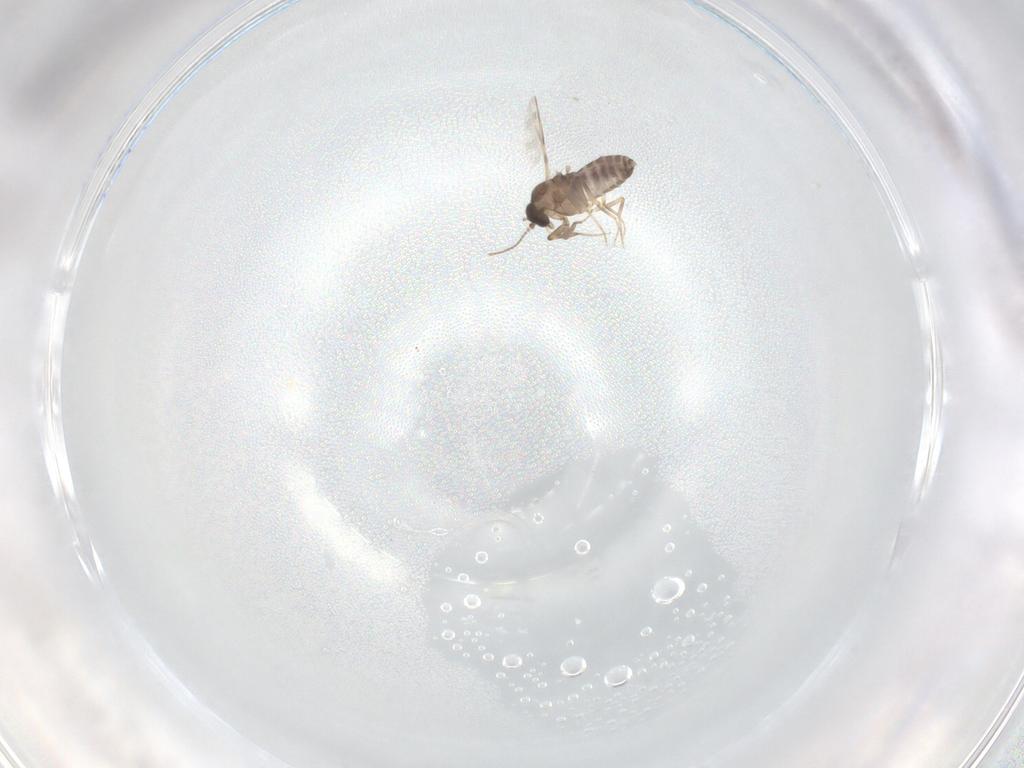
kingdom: Animalia
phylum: Arthropoda
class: Insecta
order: Diptera
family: Ceratopogonidae
